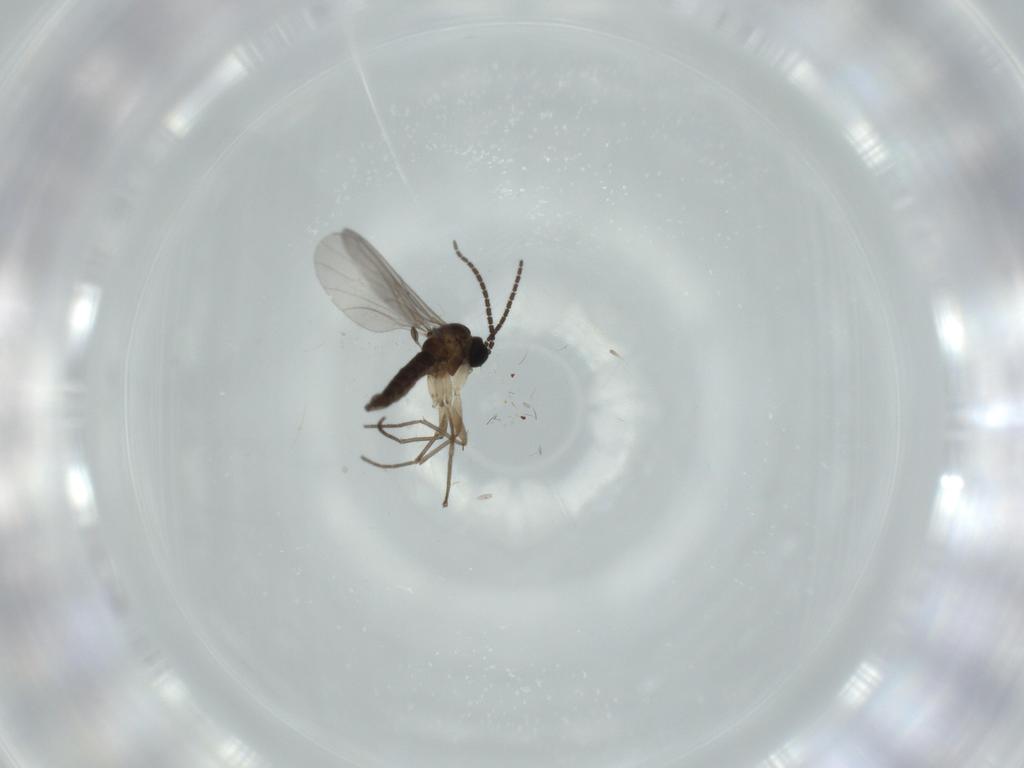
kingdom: Animalia
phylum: Arthropoda
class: Insecta
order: Diptera
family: Sciaridae
